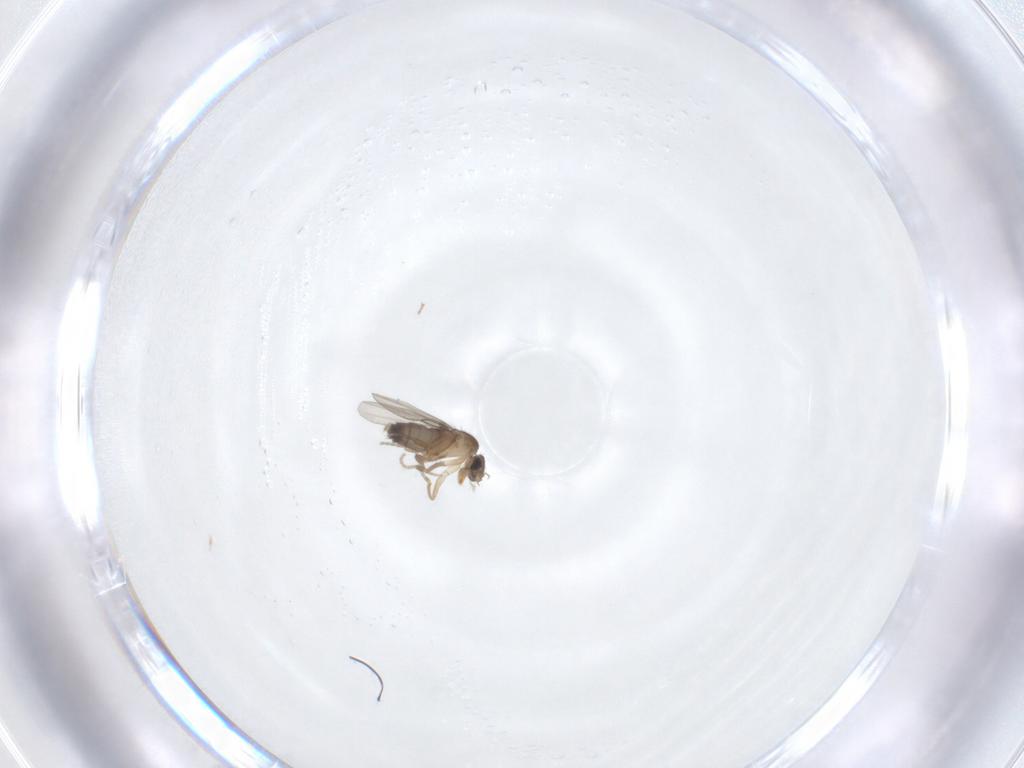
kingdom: Animalia
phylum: Arthropoda
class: Insecta
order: Diptera
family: Phoridae
